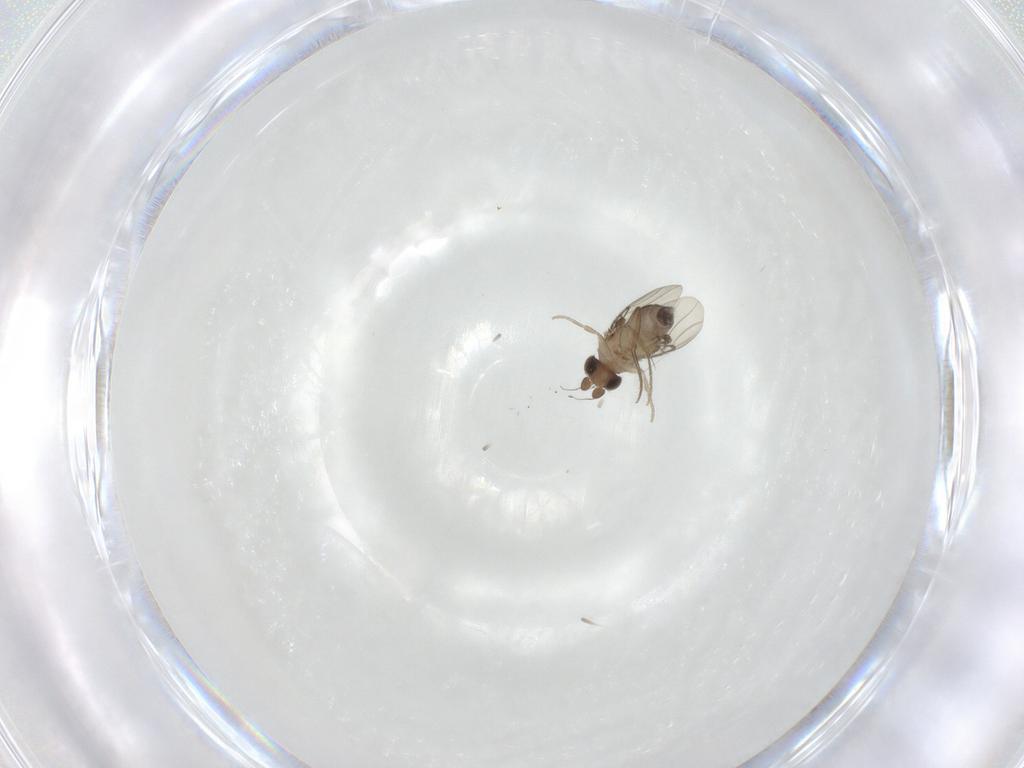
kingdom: Animalia
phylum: Arthropoda
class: Insecta
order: Diptera
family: Phoridae
